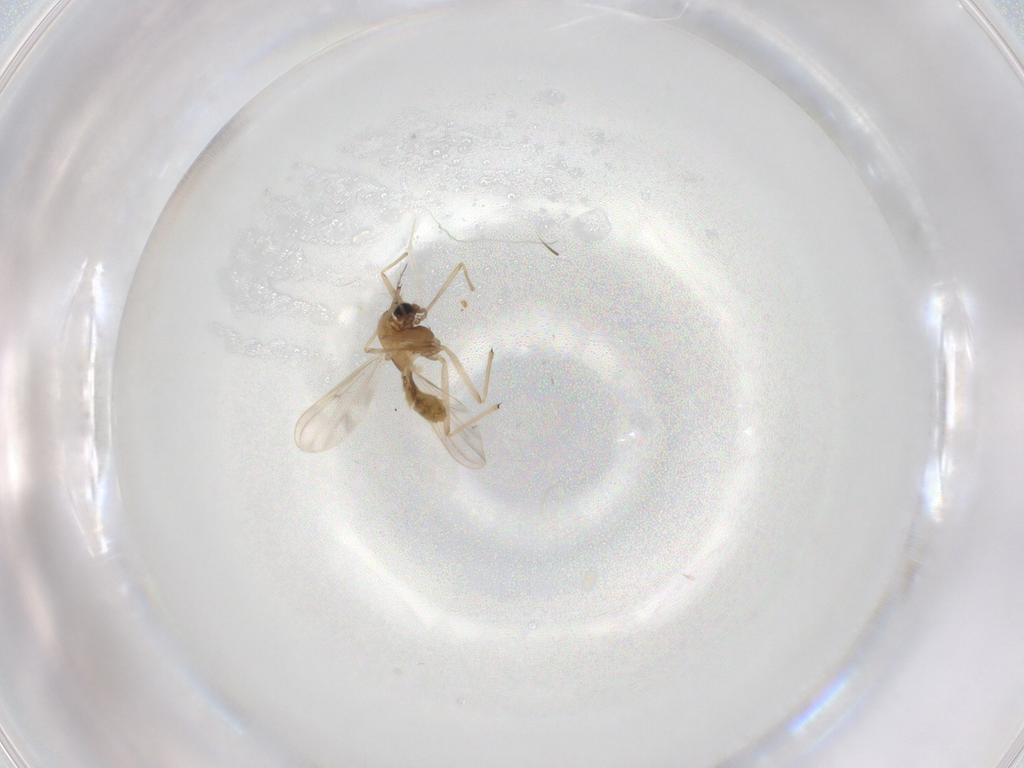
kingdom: Animalia
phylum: Arthropoda
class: Insecta
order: Diptera
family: Chironomidae
